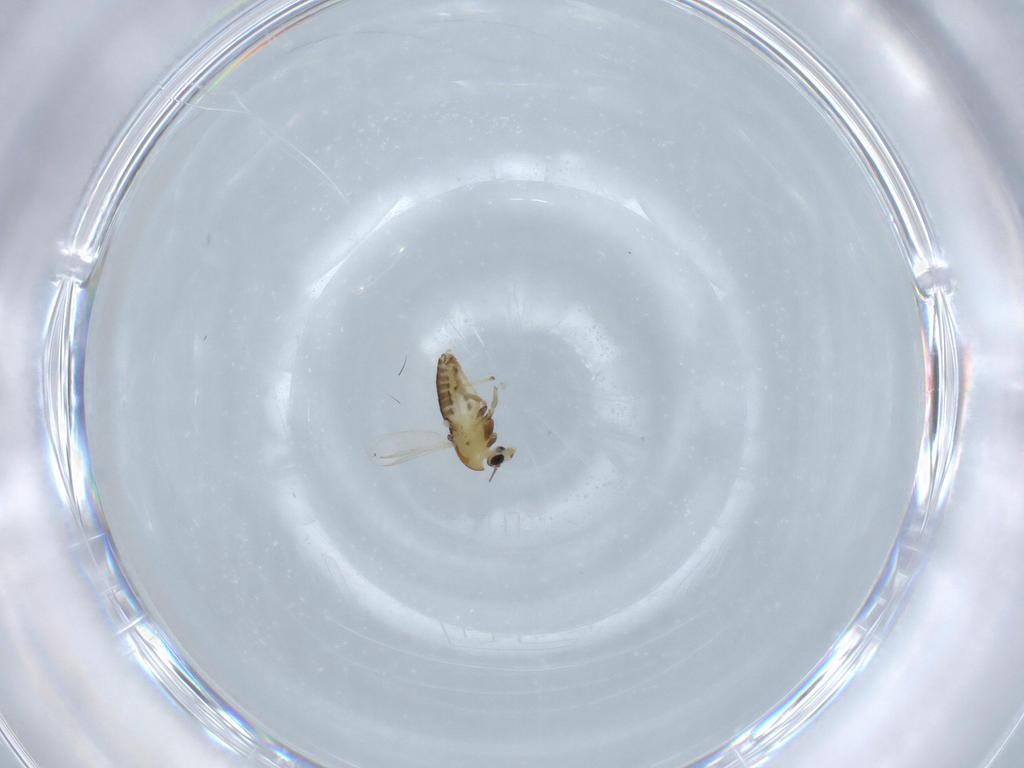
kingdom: Animalia
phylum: Arthropoda
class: Insecta
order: Diptera
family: Chironomidae
